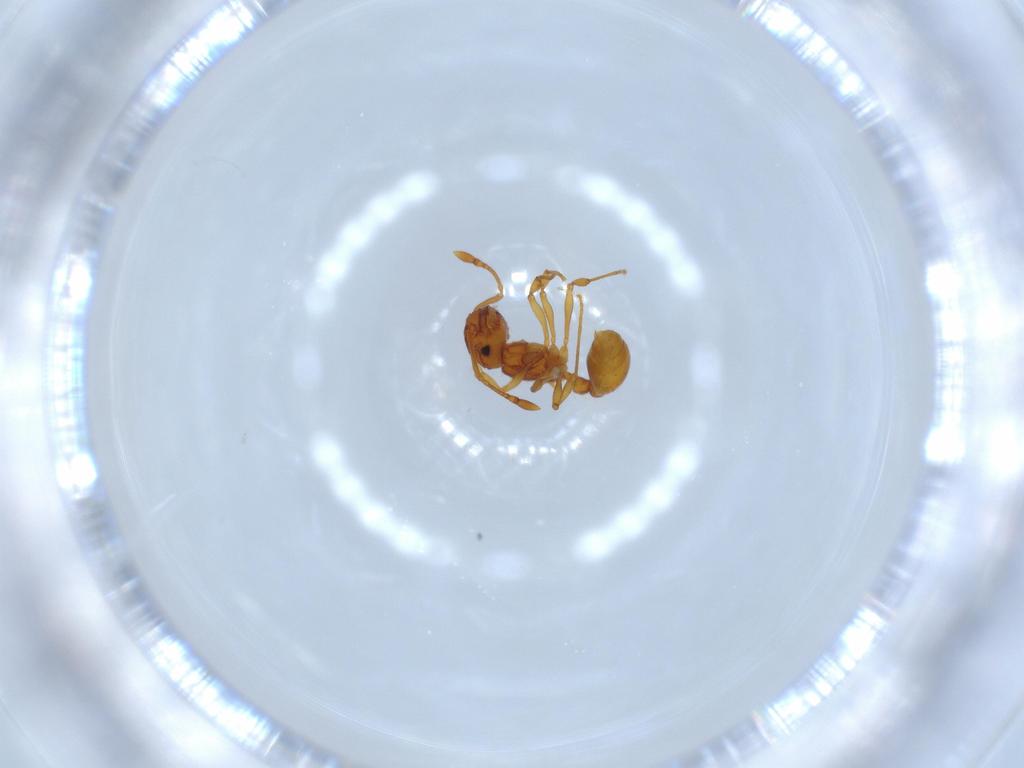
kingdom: Animalia
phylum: Arthropoda
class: Insecta
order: Hymenoptera
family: Formicidae
